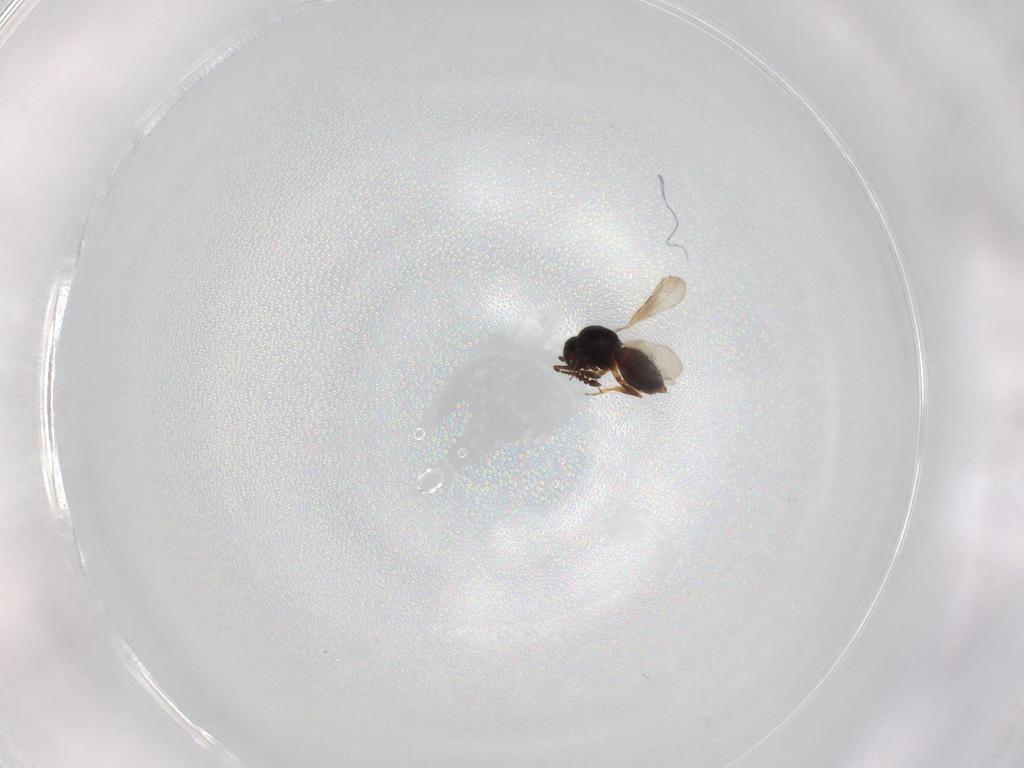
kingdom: Animalia
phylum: Arthropoda
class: Insecta
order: Hymenoptera
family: Ceraphronidae
